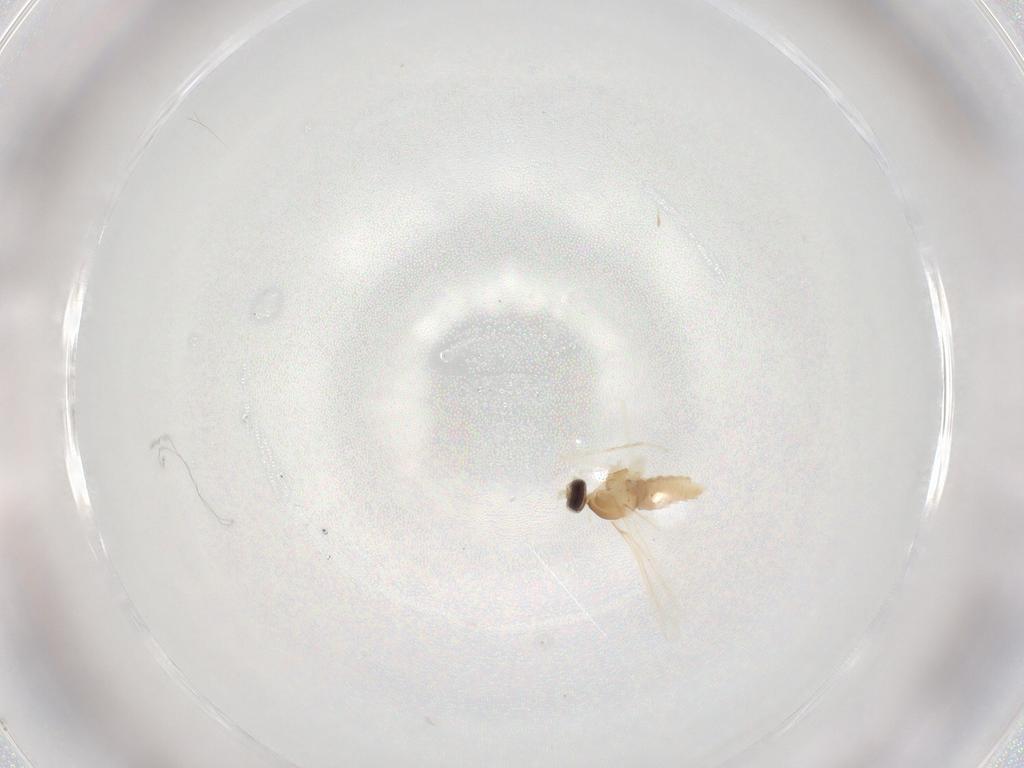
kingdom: Animalia
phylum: Arthropoda
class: Insecta
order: Diptera
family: Cecidomyiidae
